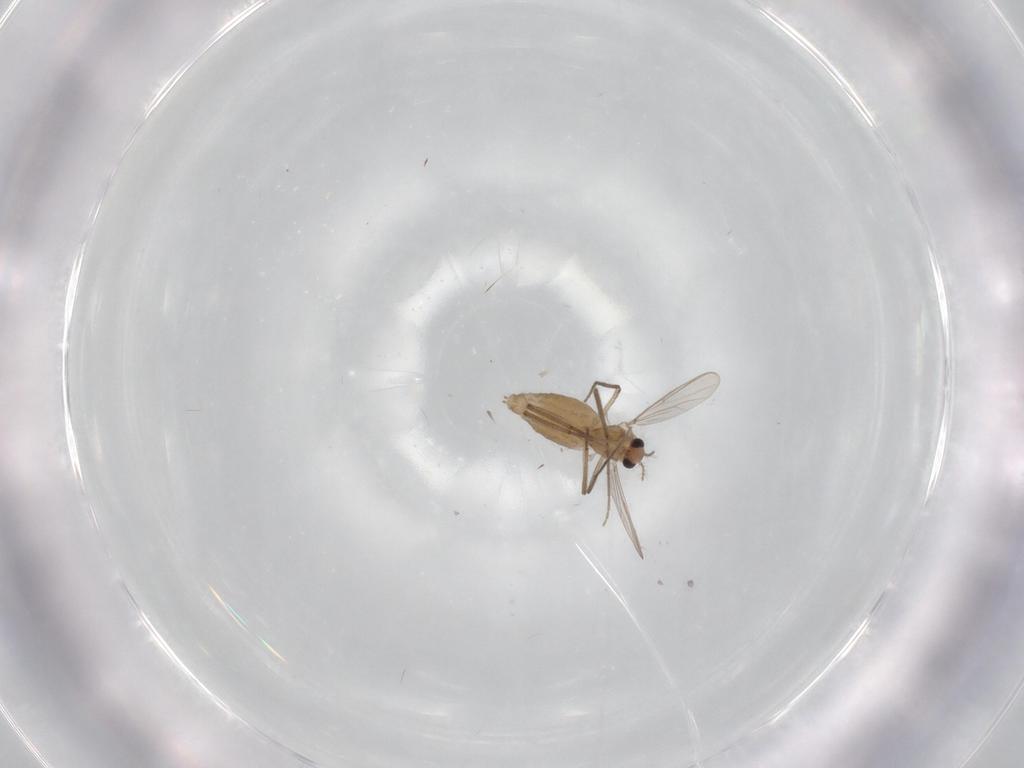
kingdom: Animalia
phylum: Arthropoda
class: Insecta
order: Diptera
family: Chironomidae
